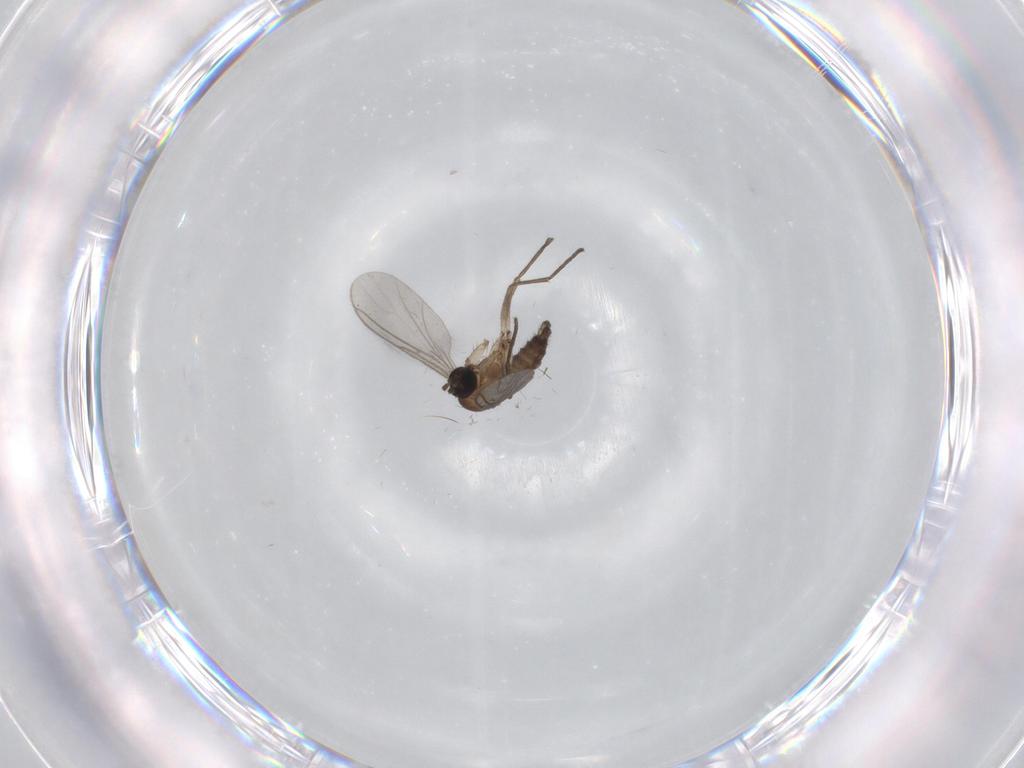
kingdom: Animalia
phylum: Arthropoda
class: Insecta
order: Diptera
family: Sciaridae
